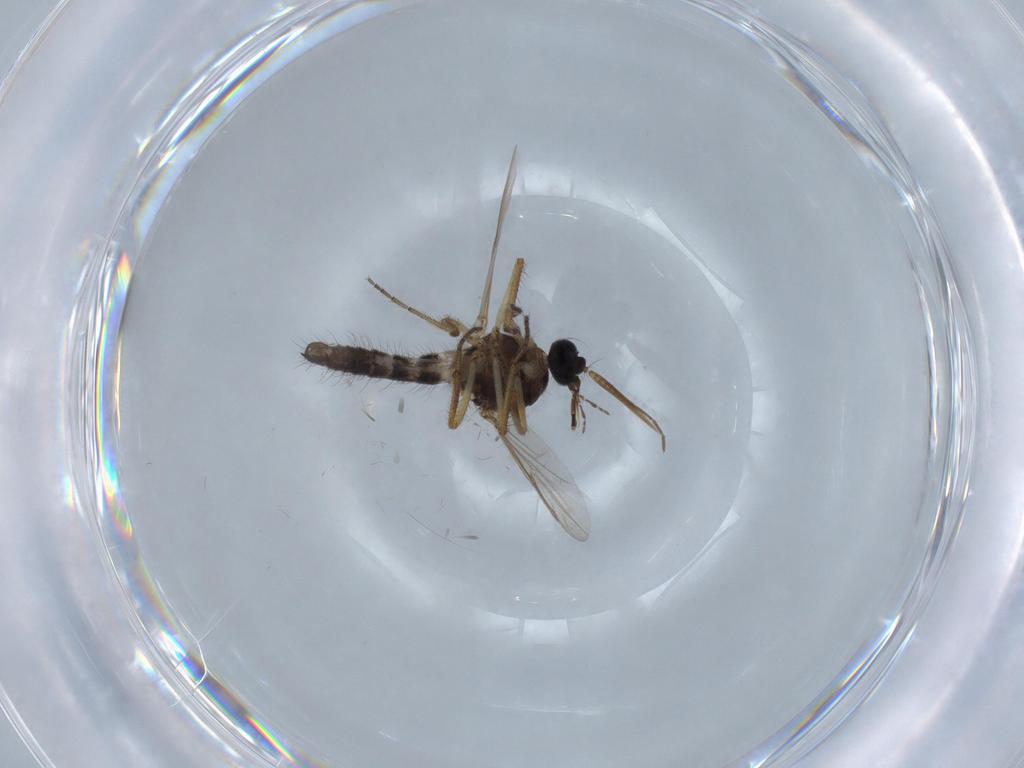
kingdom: Animalia
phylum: Arthropoda
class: Insecta
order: Diptera
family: Ceratopogonidae
